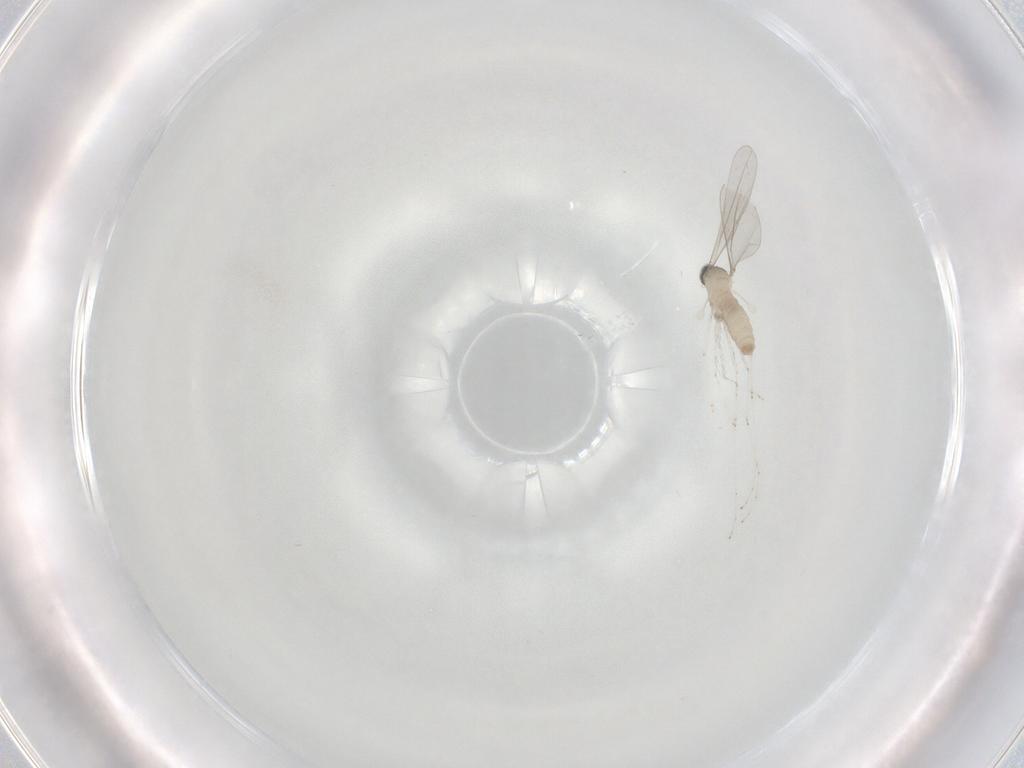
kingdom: Animalia
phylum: Arthropoda
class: Insecta
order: Diptera
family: Cecidomyiidae
